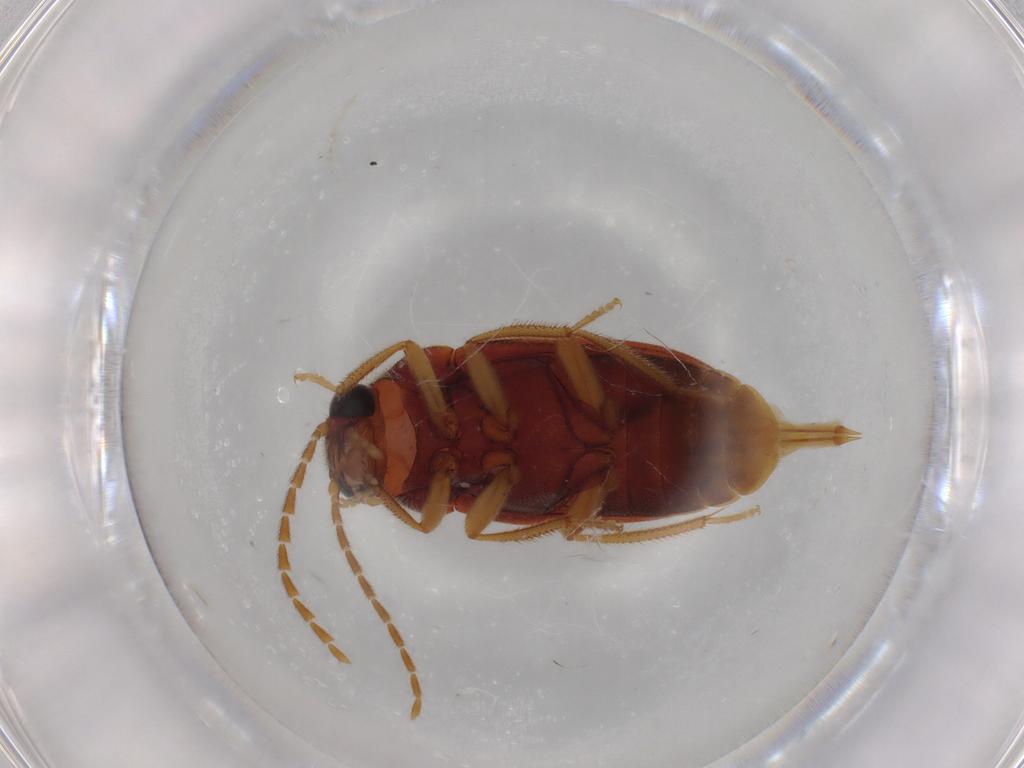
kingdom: Animalia
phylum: Arthropoda
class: Insecta
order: Coleoptera
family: Ptilodactylidae
